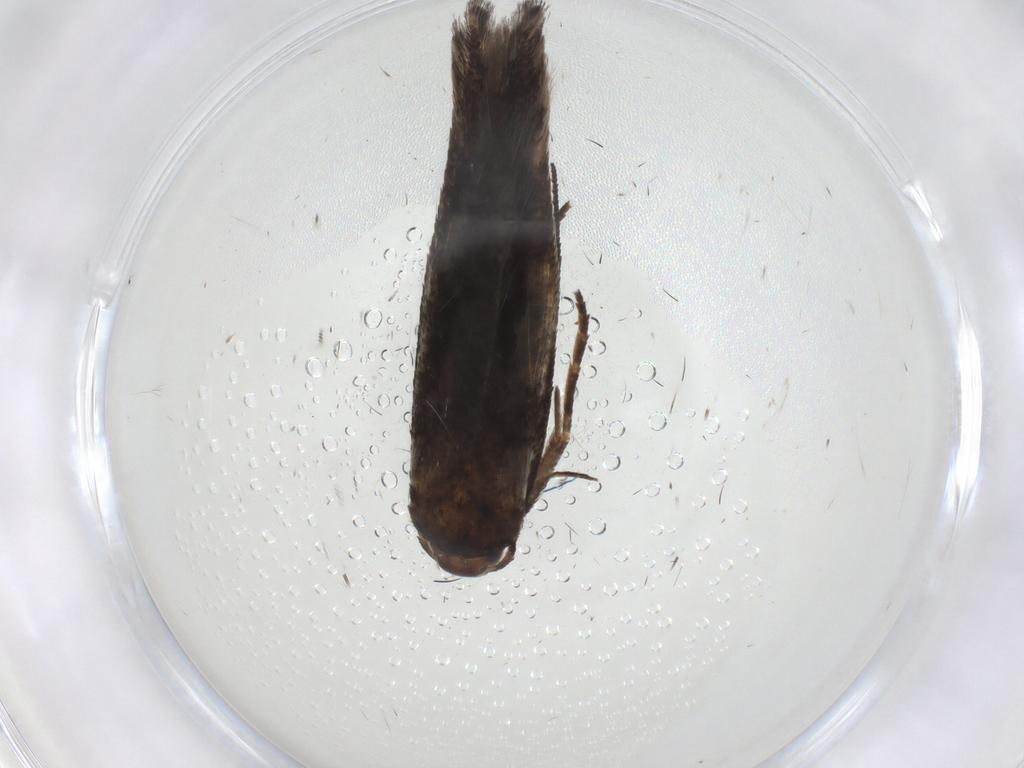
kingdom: Animalia
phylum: Arthropoda
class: Insecta
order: Lepidoptera
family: Gelechiidae
